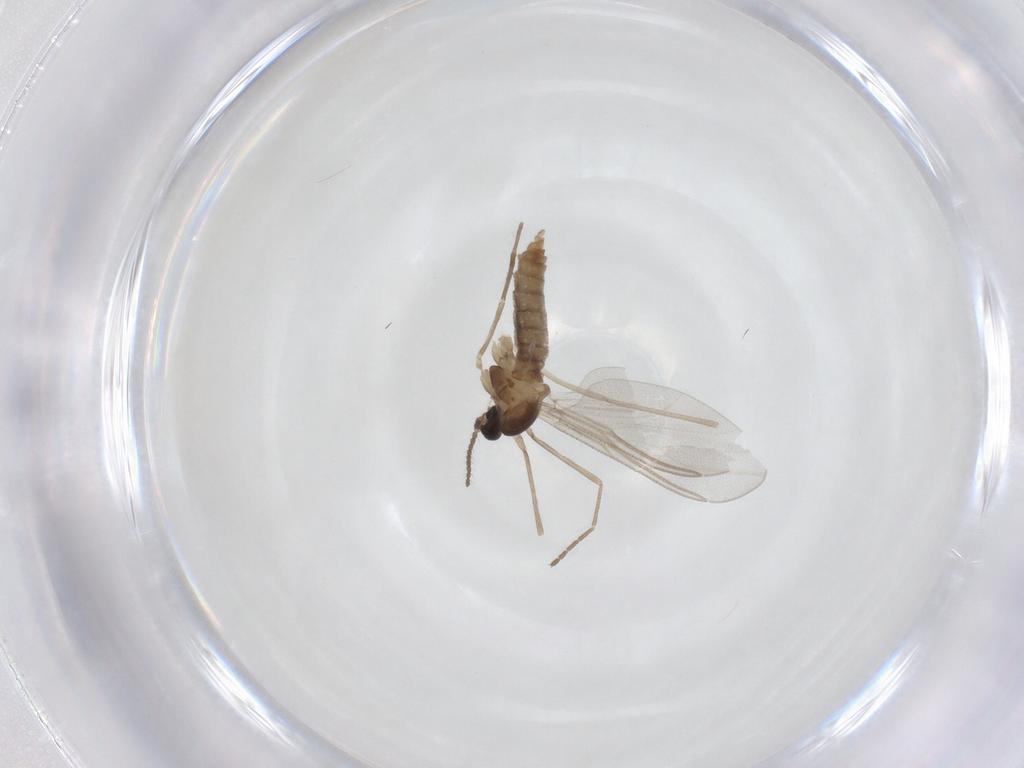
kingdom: Animalia
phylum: Arthropoda
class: Insecta
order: Diptera
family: Cecidomyiidae
